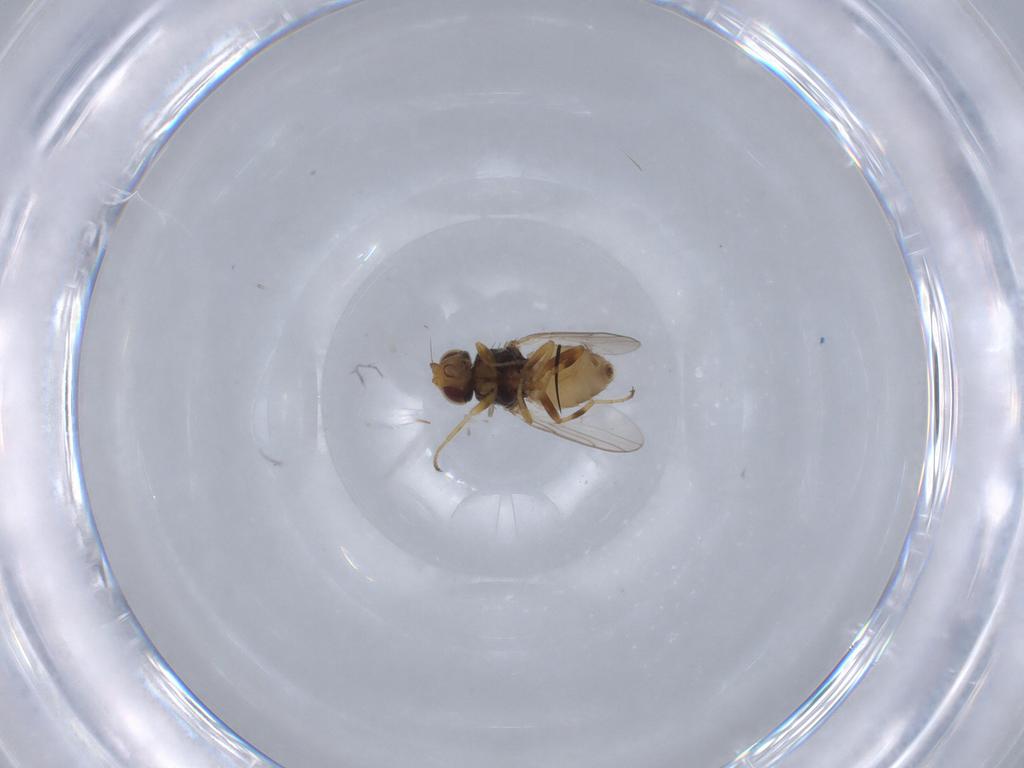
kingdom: Animalia
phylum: Arthropoda
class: Insecta
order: Diptera
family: Chloropidae
